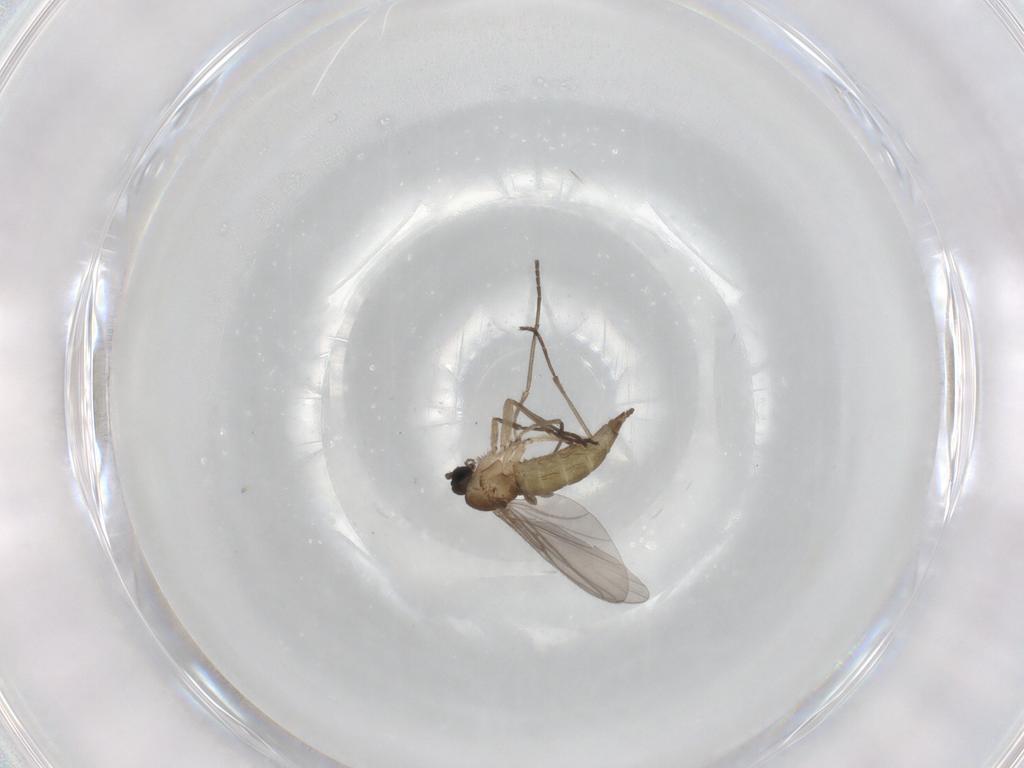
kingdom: Animalia
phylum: Arthropoda
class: Insecta
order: Diptera
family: Sciaridae
